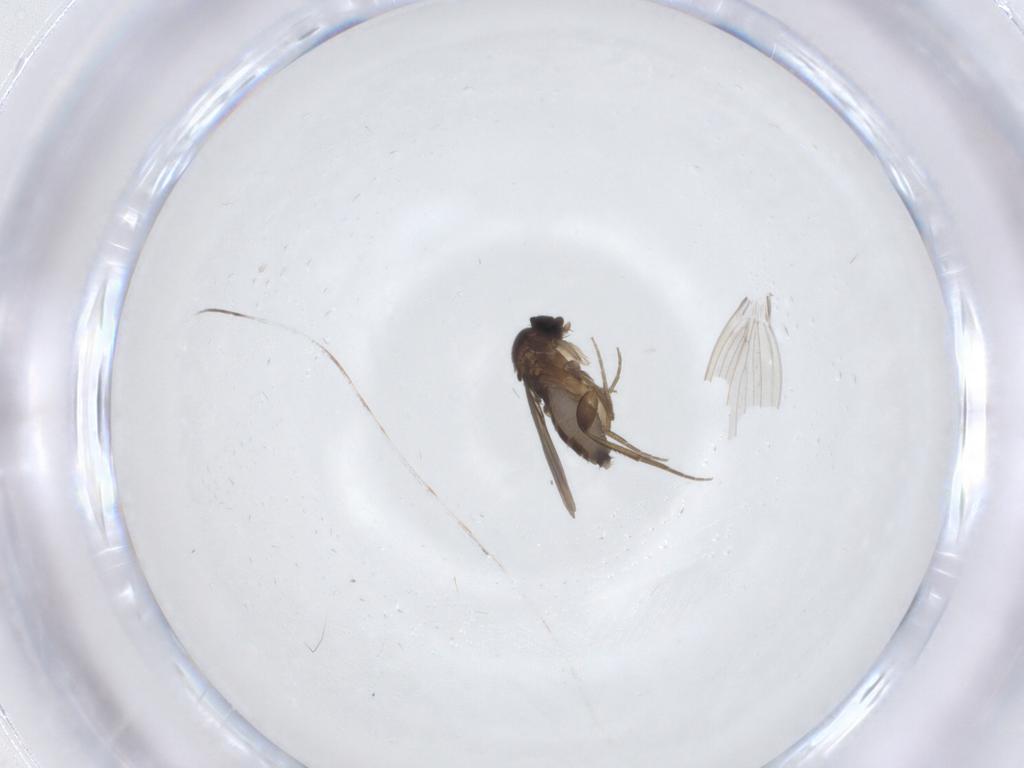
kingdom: Animalia
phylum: Arthropoda
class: Insecta
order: Diptera
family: Phoridae
